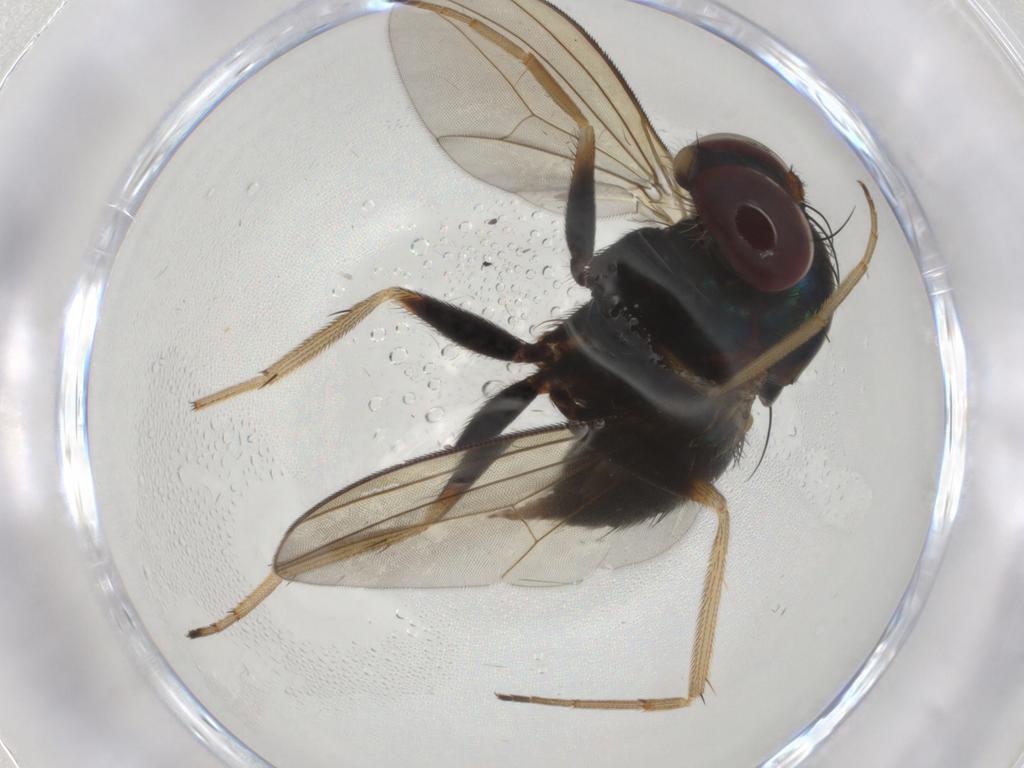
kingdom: Animalia
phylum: Arthropoda
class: Insecta
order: Diptera
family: Dolichopodidae
